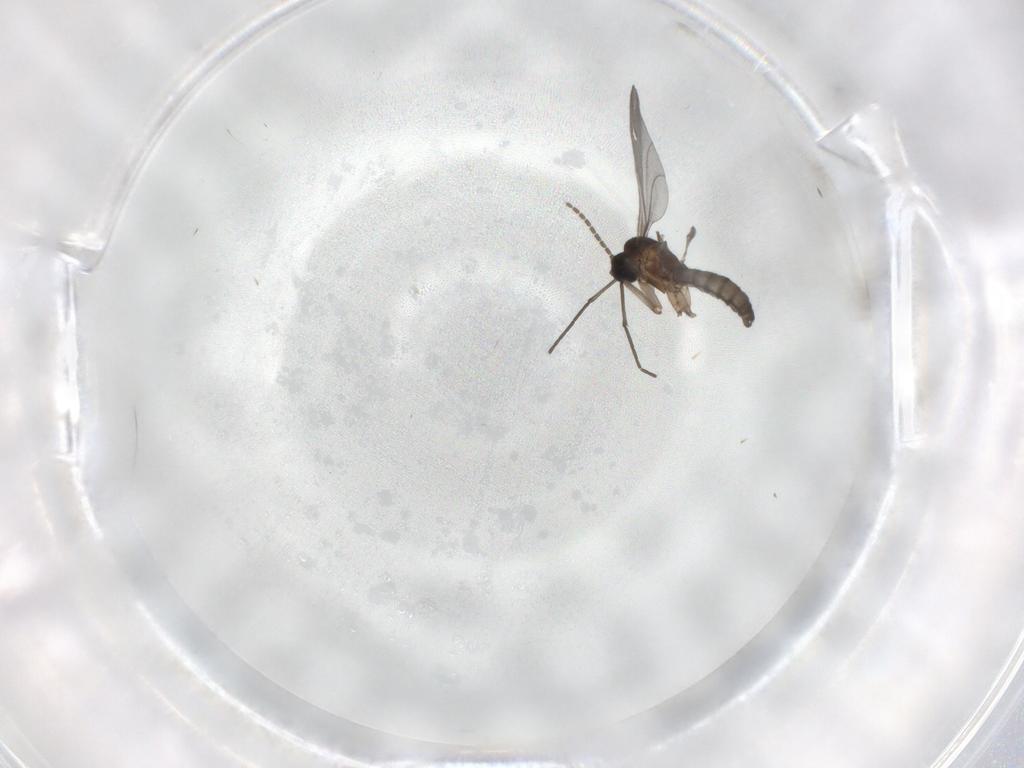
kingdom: Animalia
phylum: Arthropoda
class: Insecta
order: Diptera
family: Sciaridae
